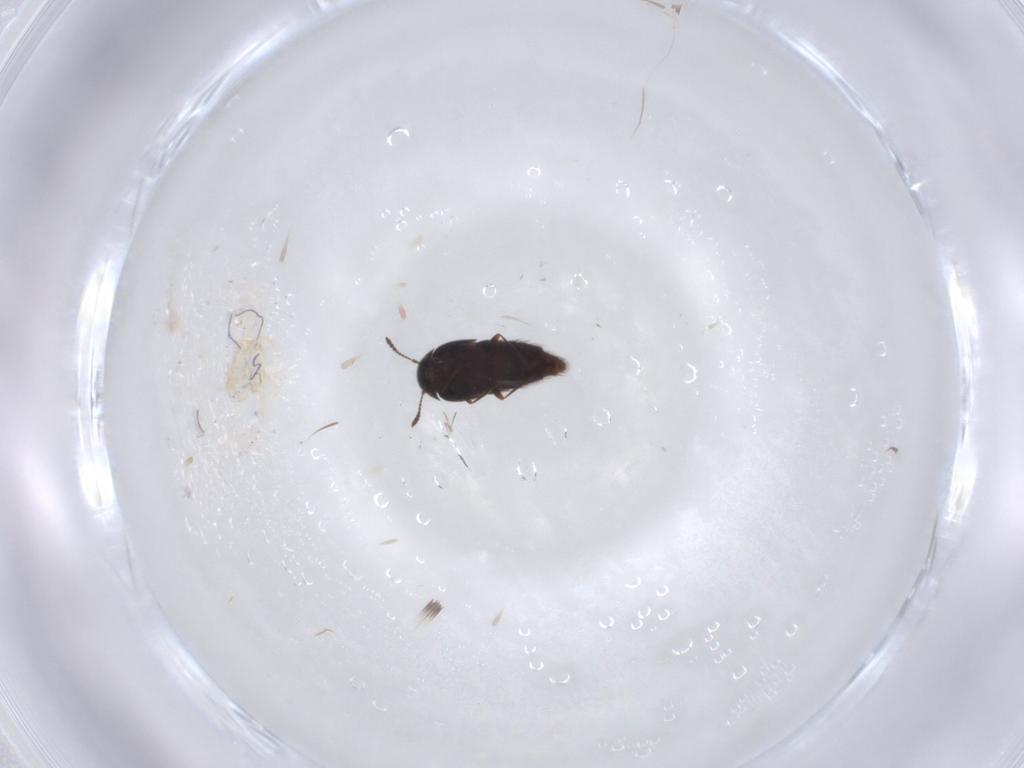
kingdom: Animalia
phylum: Arthropoda
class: Insecta
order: Coleoptera
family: Staphylinidae
